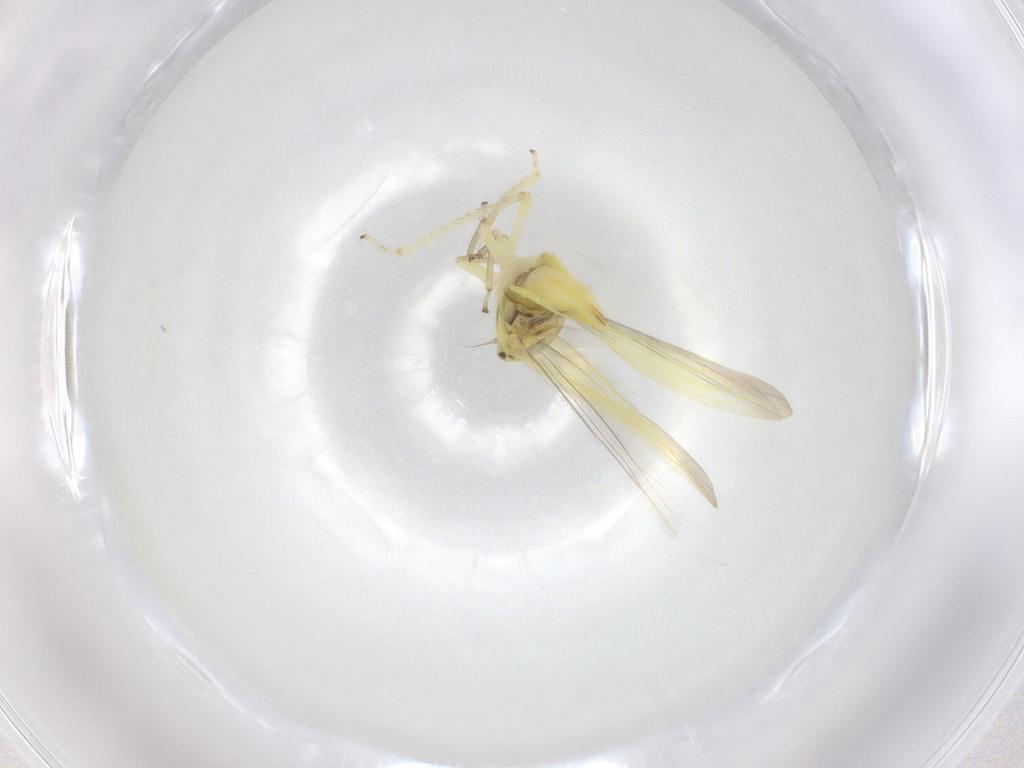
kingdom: Animalia
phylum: Arthropoda
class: Insecta
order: Hemiptera
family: Cicadellidae
